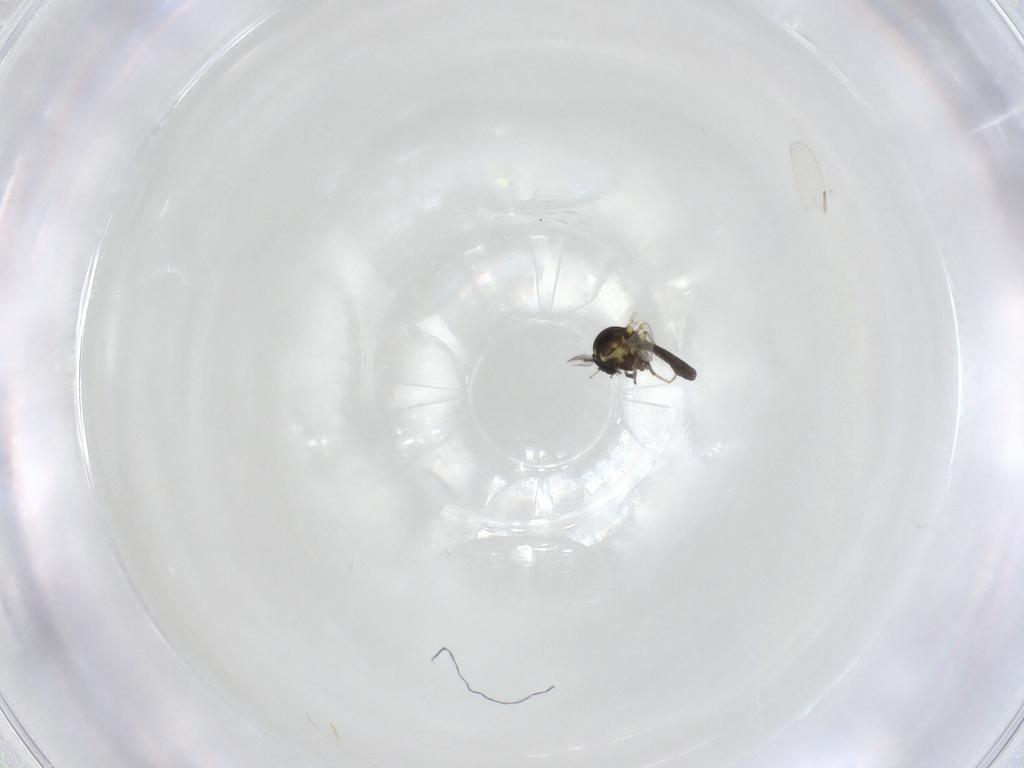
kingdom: Animalia
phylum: Arthropoda
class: Insecta
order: Diptera
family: Ceratopogonidae
